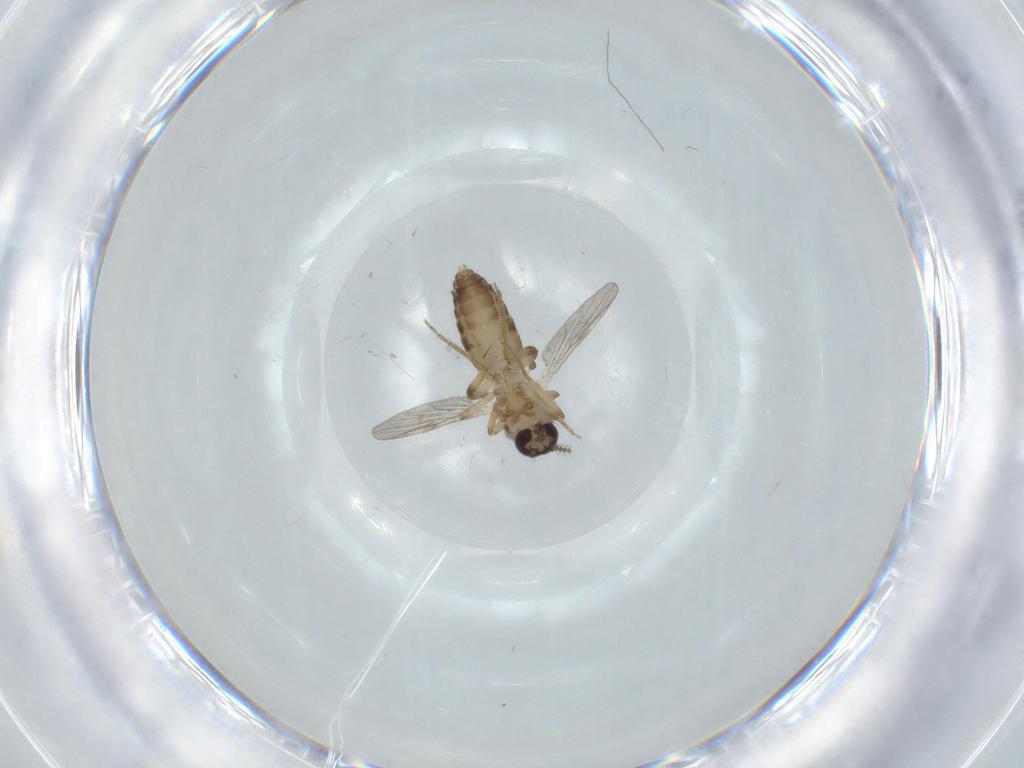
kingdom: Animalia
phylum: Arthropoda
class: Insecta
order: Diptera
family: Ceratopogonidae
